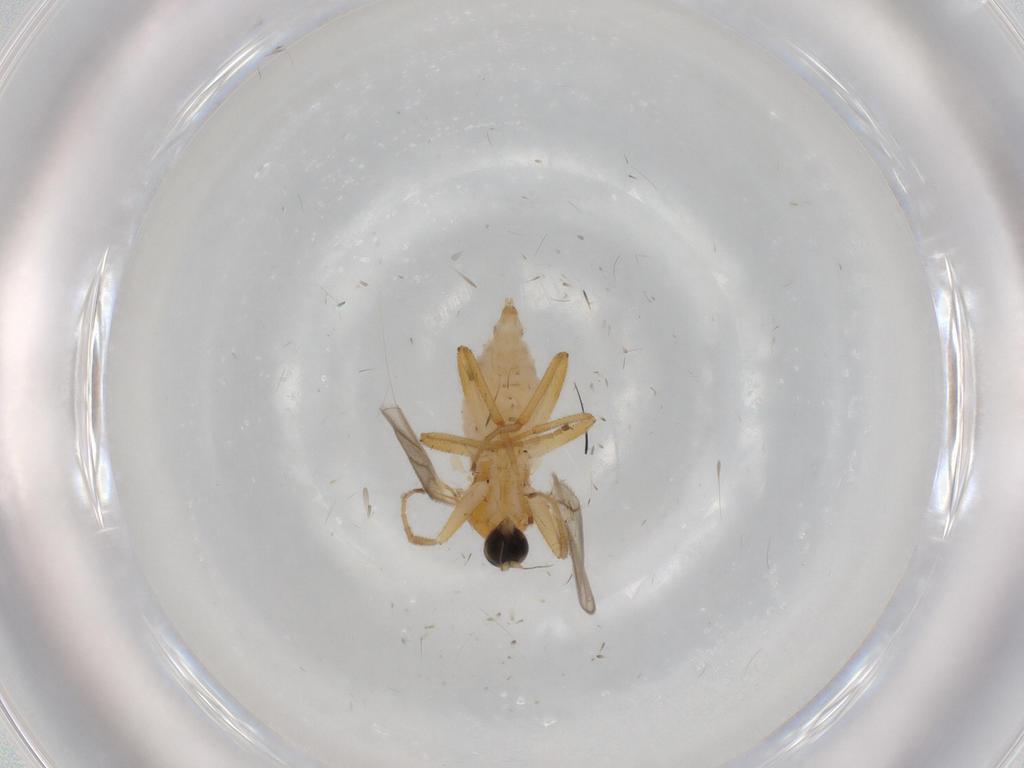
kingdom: Animalia
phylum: Arthropoda
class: Insecta
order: Diptera
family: Hybotidae
